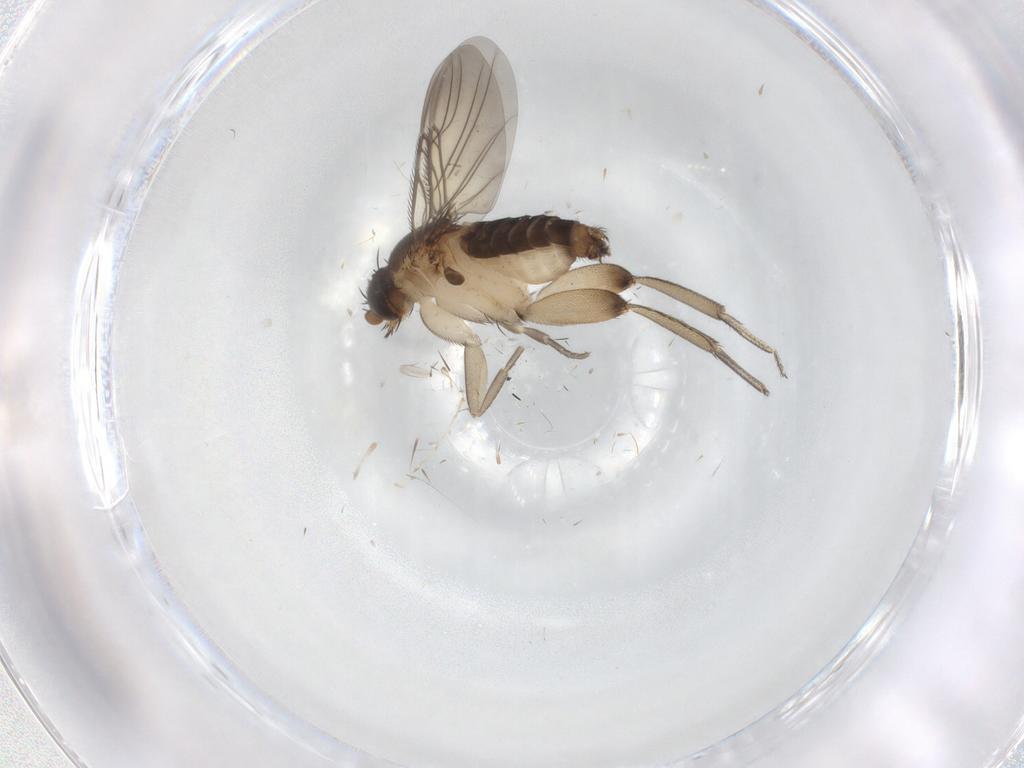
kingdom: Animalia
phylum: Arthropoda
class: Insecta
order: Diptera
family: Phoridae
